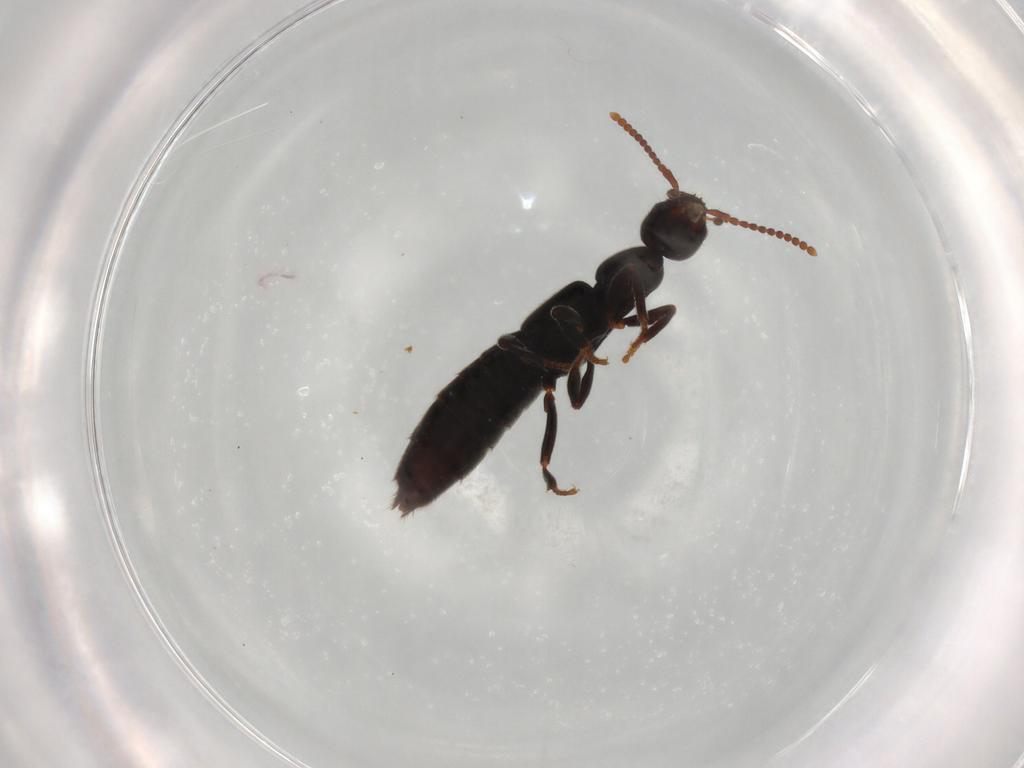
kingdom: Animalia
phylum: Arthropoda
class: Insecta
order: Coleoptera
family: Staphylinidae
